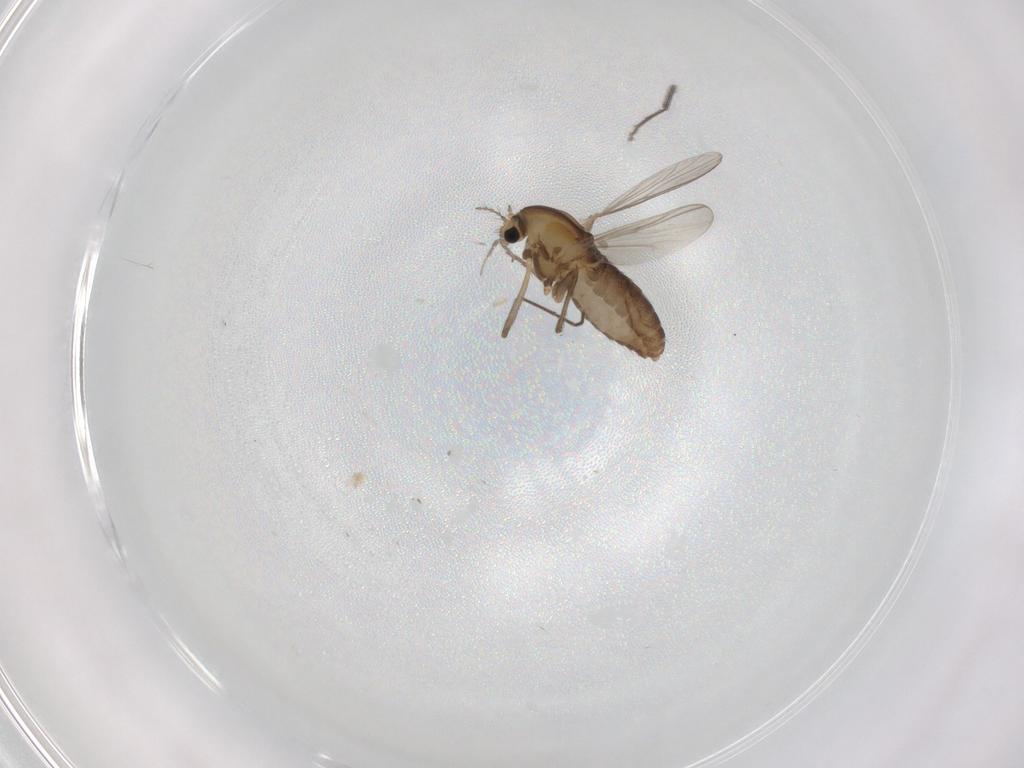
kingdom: Animalia
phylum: Arthropoda
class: Insecta
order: Diptera
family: Chironomidae
